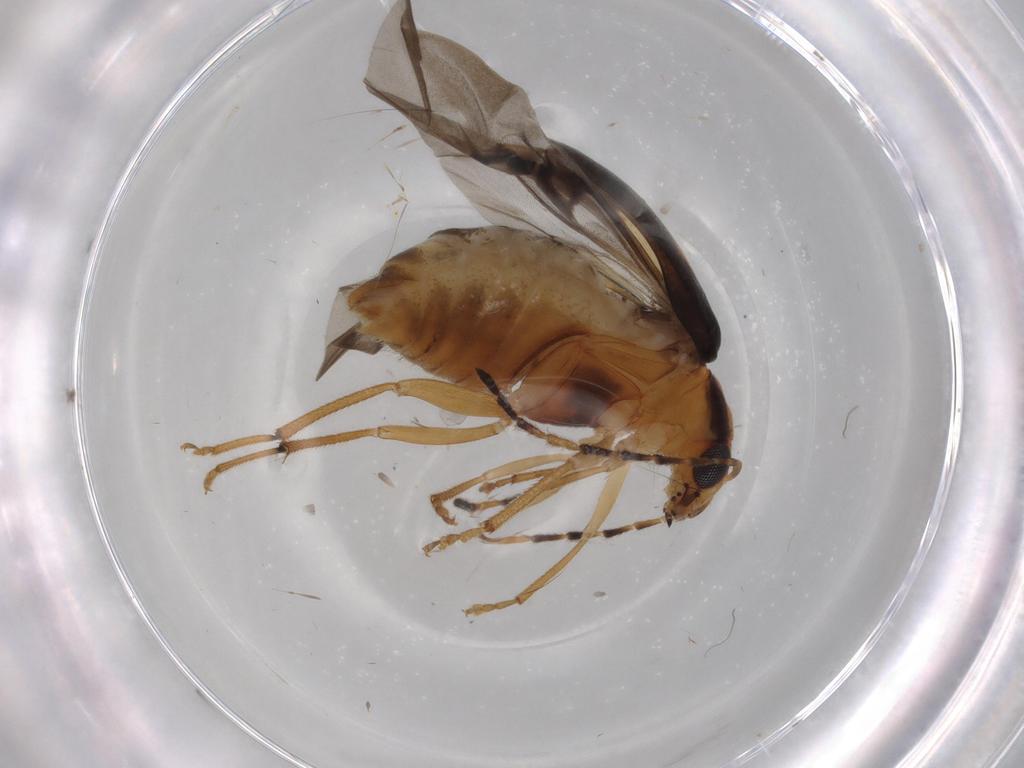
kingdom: Animalia
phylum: Arthropoda
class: Insecta
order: Coleoptera
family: Chrysomelidae
